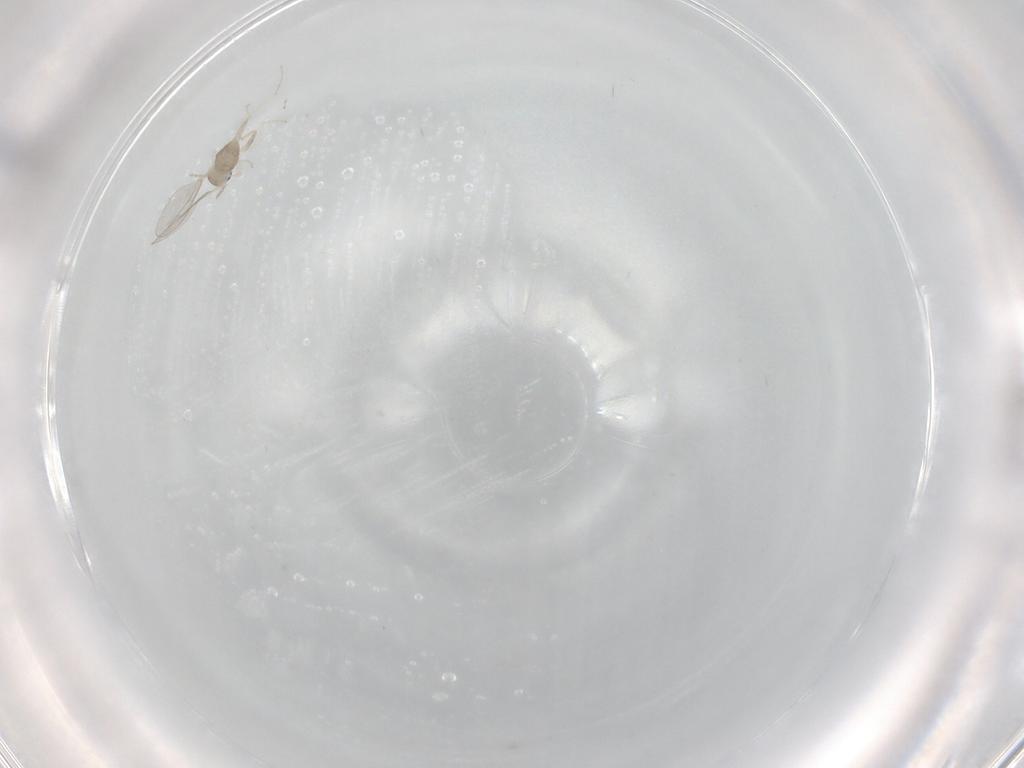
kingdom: Animalia
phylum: Arthropoda
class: Insecta
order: Diptera
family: Cecidomyiidae
